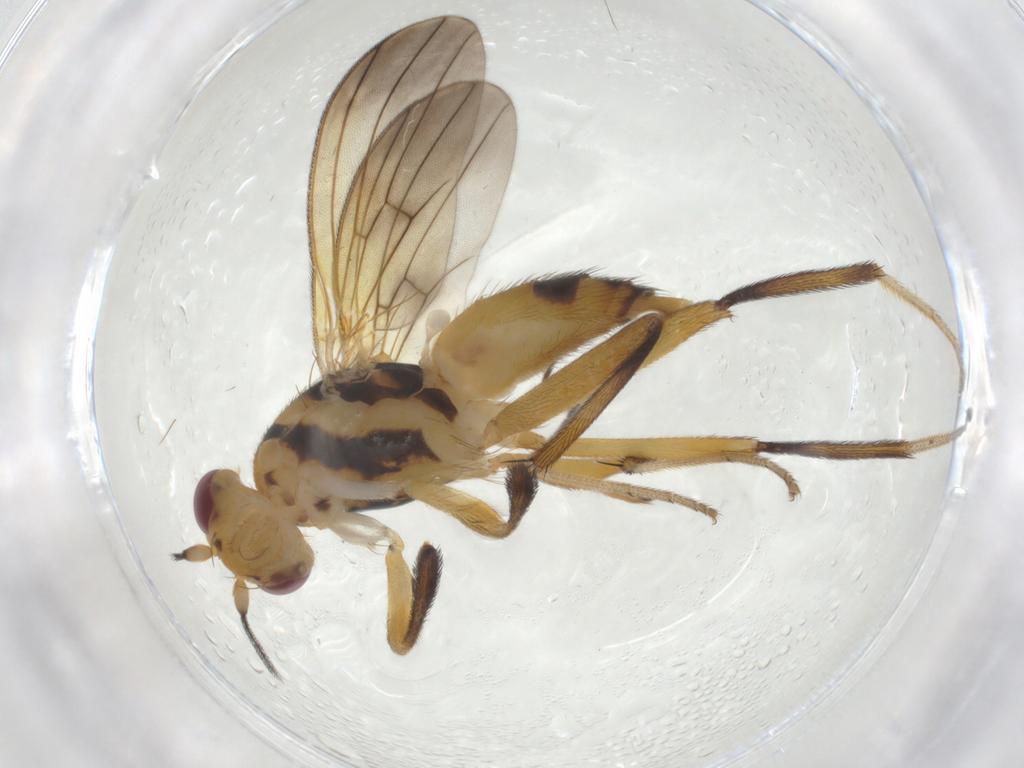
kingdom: Animalia
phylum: Arthropoda
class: Insecta
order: Diptera
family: Clusiidae
